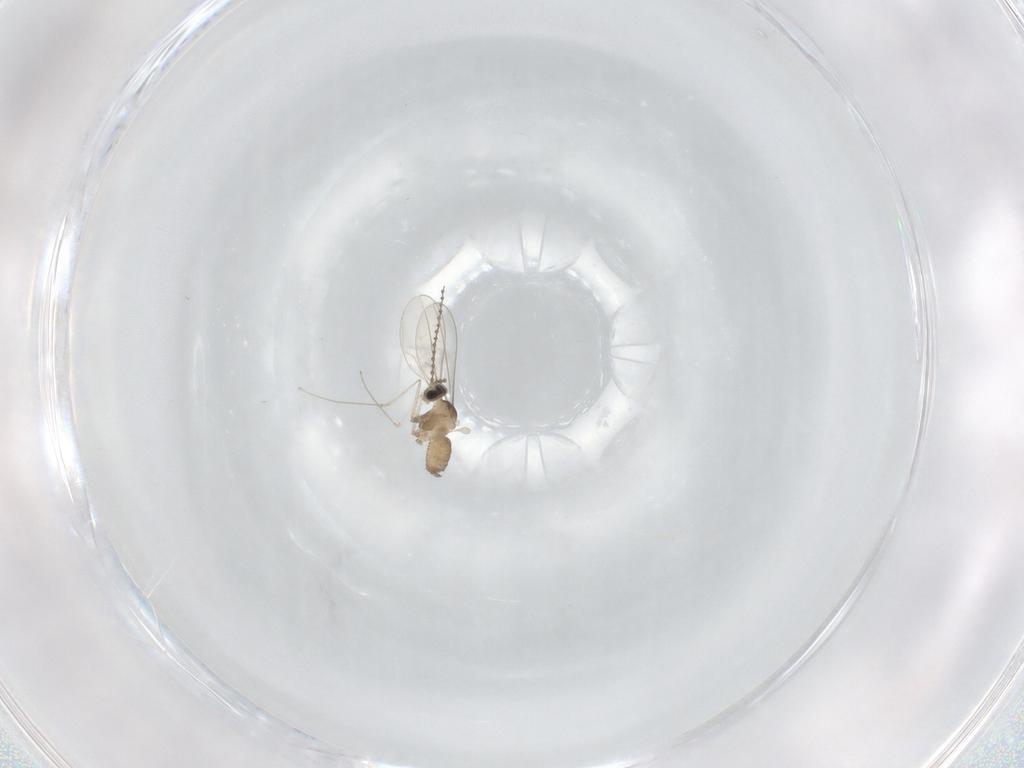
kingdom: Animalia
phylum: Arthropoda
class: Insecta
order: Diptera
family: Cecidomyiidae
